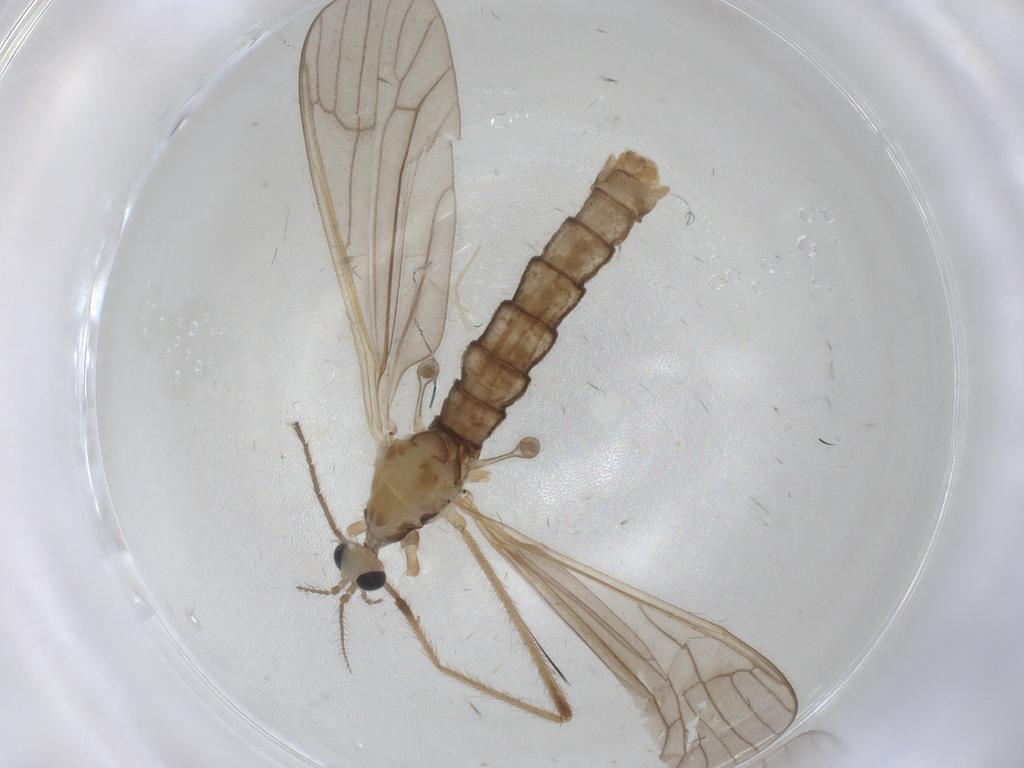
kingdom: Animalia
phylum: Arthropoda
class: Insecta
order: Diptera
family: Limoniidae
